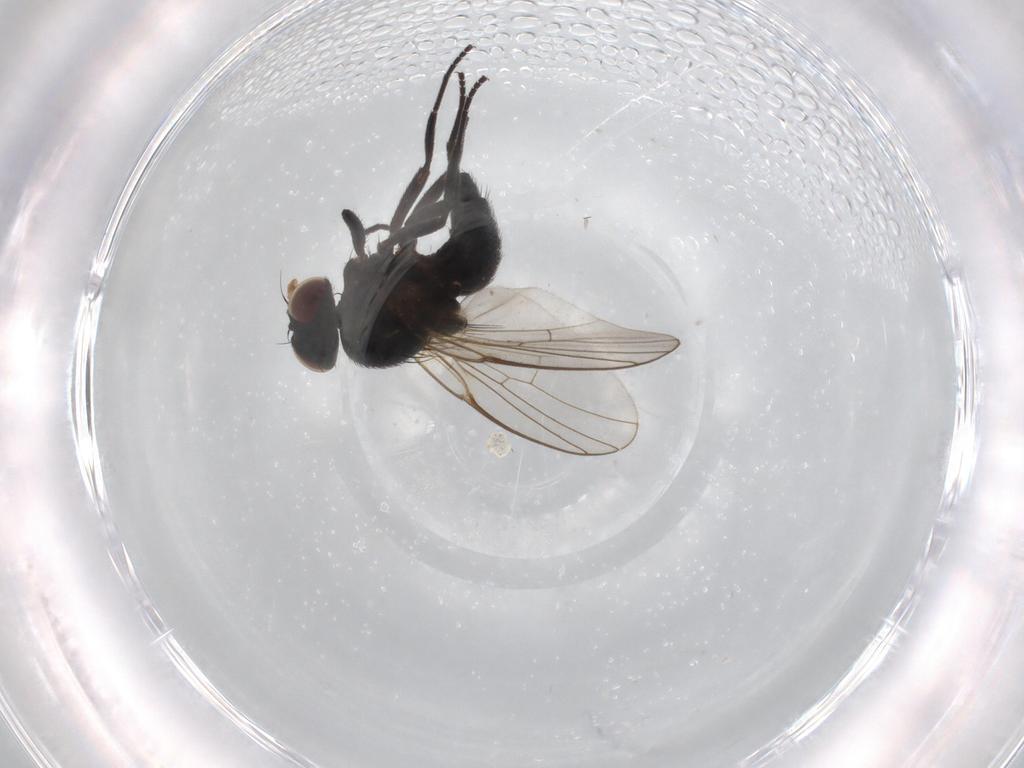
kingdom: Animalia
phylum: Arthropoda
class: Insecta
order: Diptera
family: Agromyzidae
